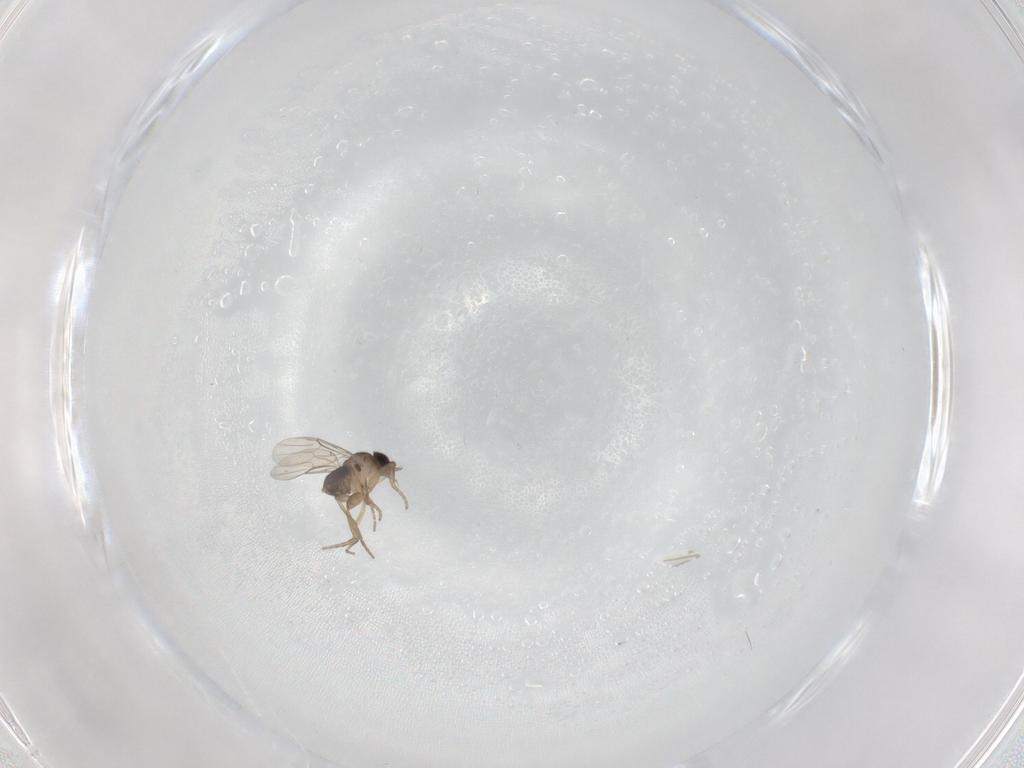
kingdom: Animalia
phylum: Arthropoda
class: Insecta
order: Diptera
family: Phoridae
